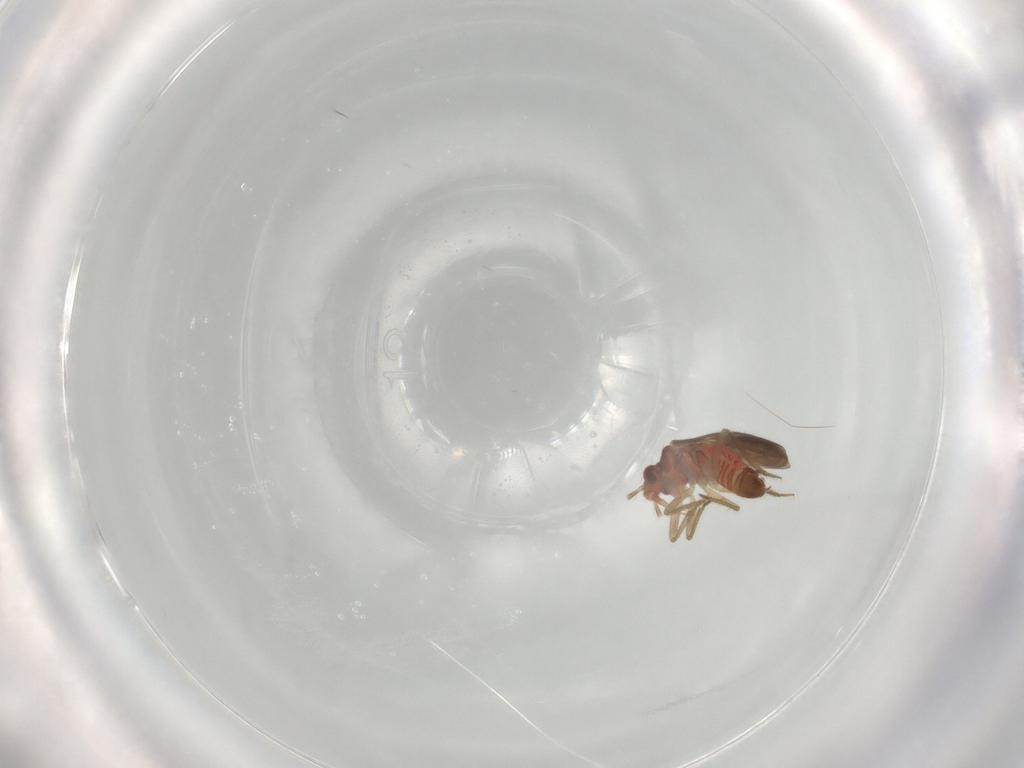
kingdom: Animalia
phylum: Arthropoda
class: Insecta
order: Hemiptera
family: Ceratocombidae
